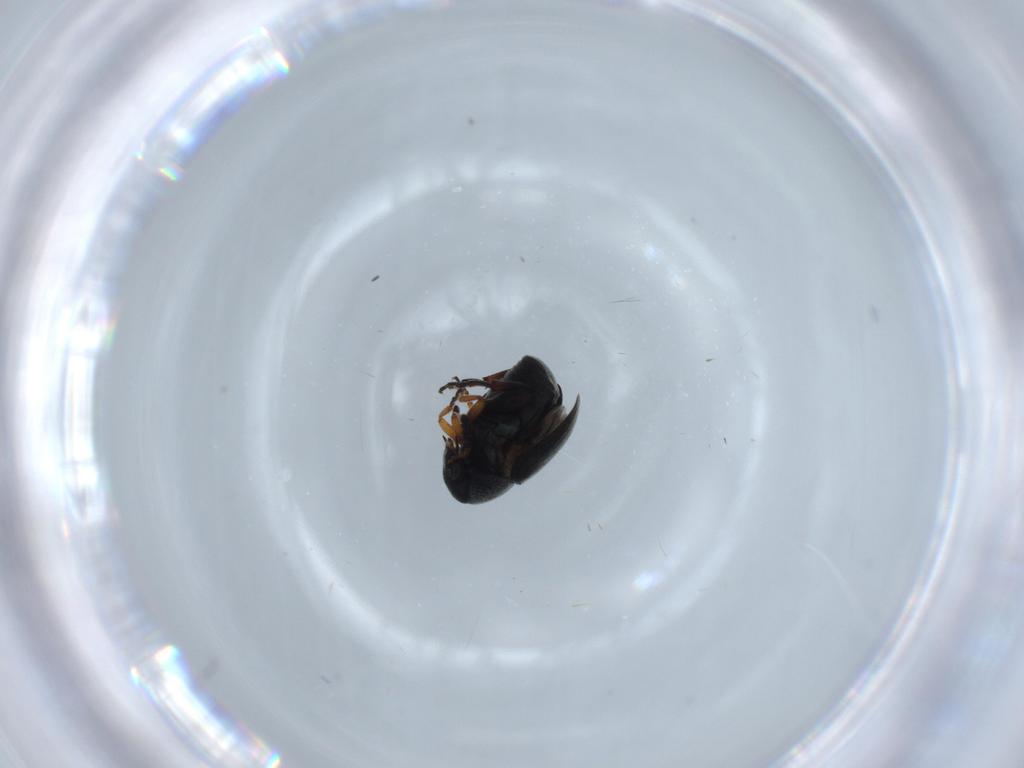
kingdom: Animalia
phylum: Arthropoda
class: Insecta
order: Coleoptera
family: Chrysomelidae
